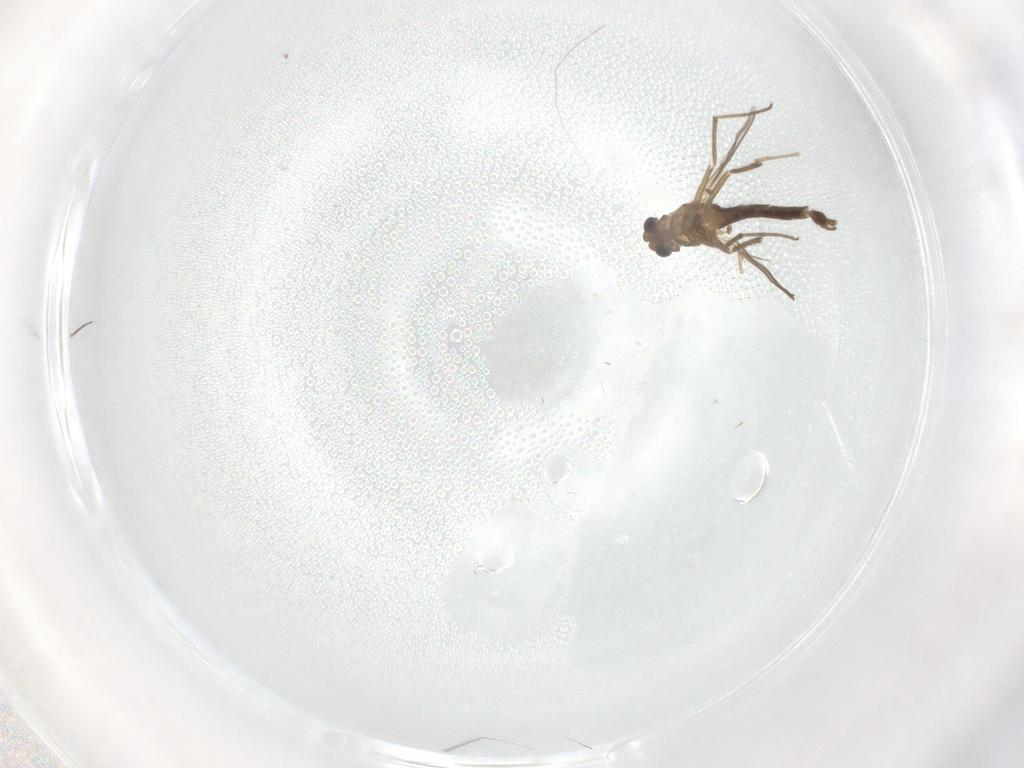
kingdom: Animalia
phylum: Arthropoda
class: Insecta
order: Diptera
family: Chironomidae
